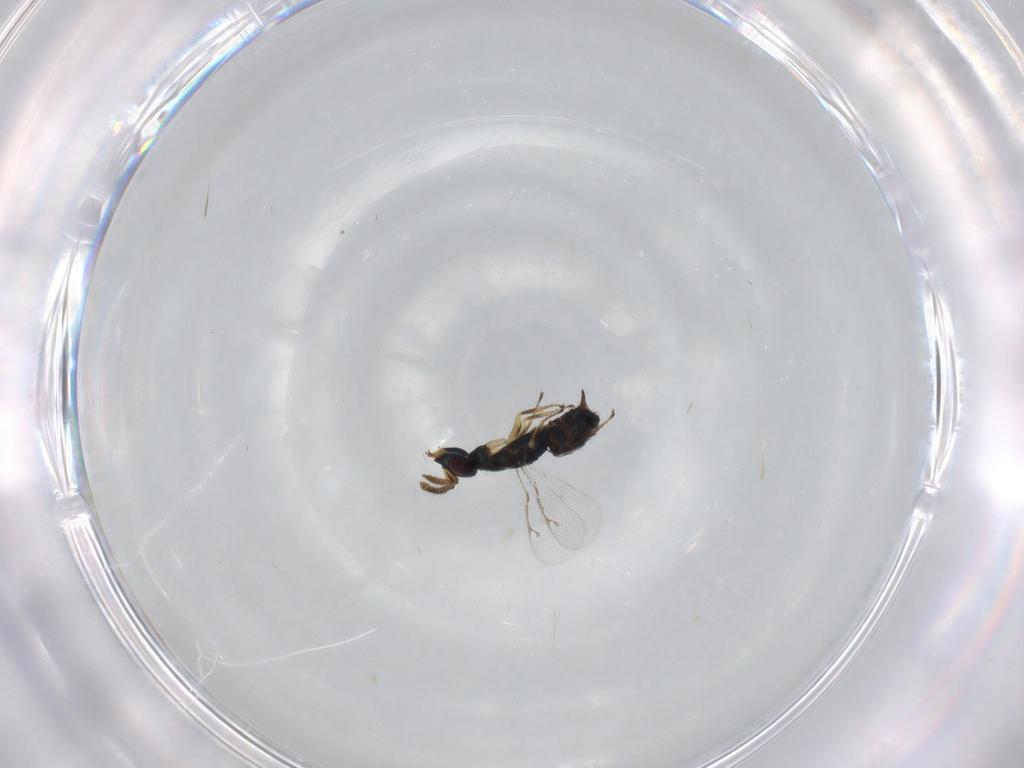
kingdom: Animalia
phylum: Arthropoda
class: Insecta
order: Hymenoptera
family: Pirenidae
